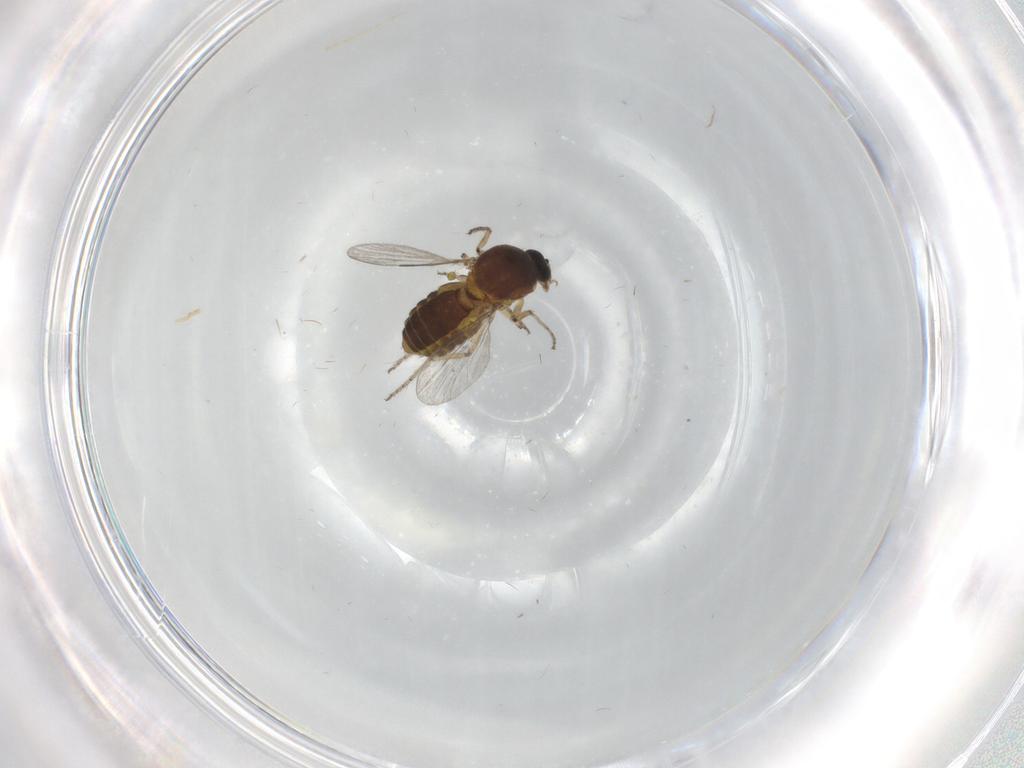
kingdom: Animalia
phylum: Arthropoda
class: Insecta
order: Diptera
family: Ceratopogonidae
